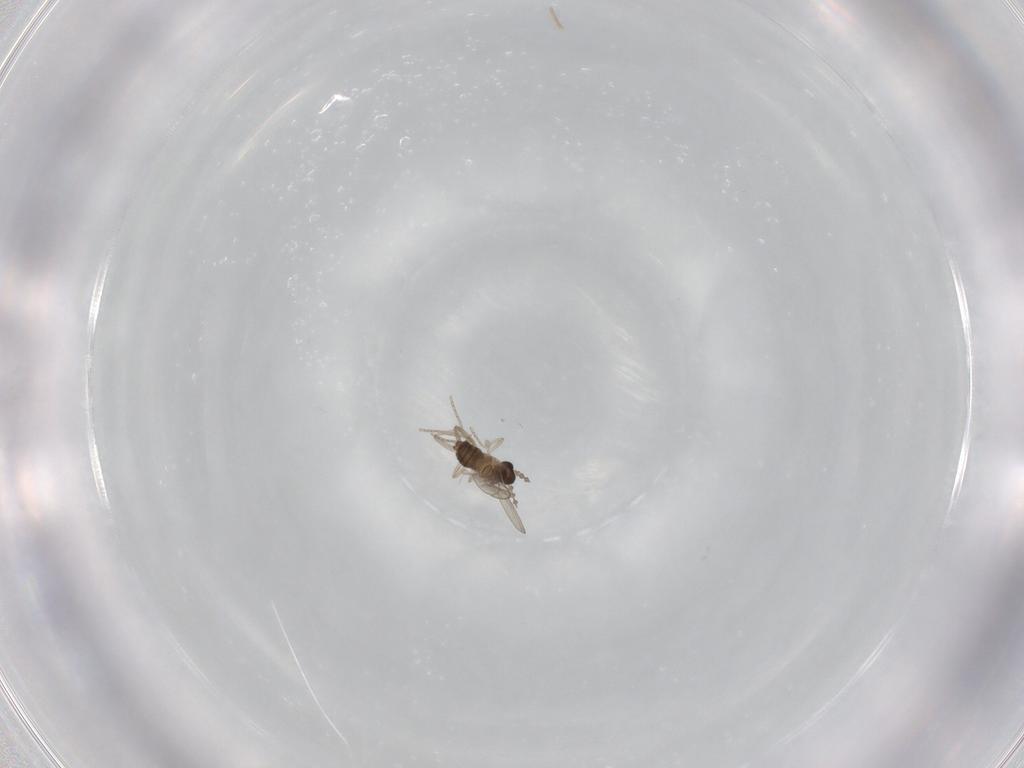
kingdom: Animalia
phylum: Arthropoda
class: Insecta
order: Diptera
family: Cecidomyiidae
